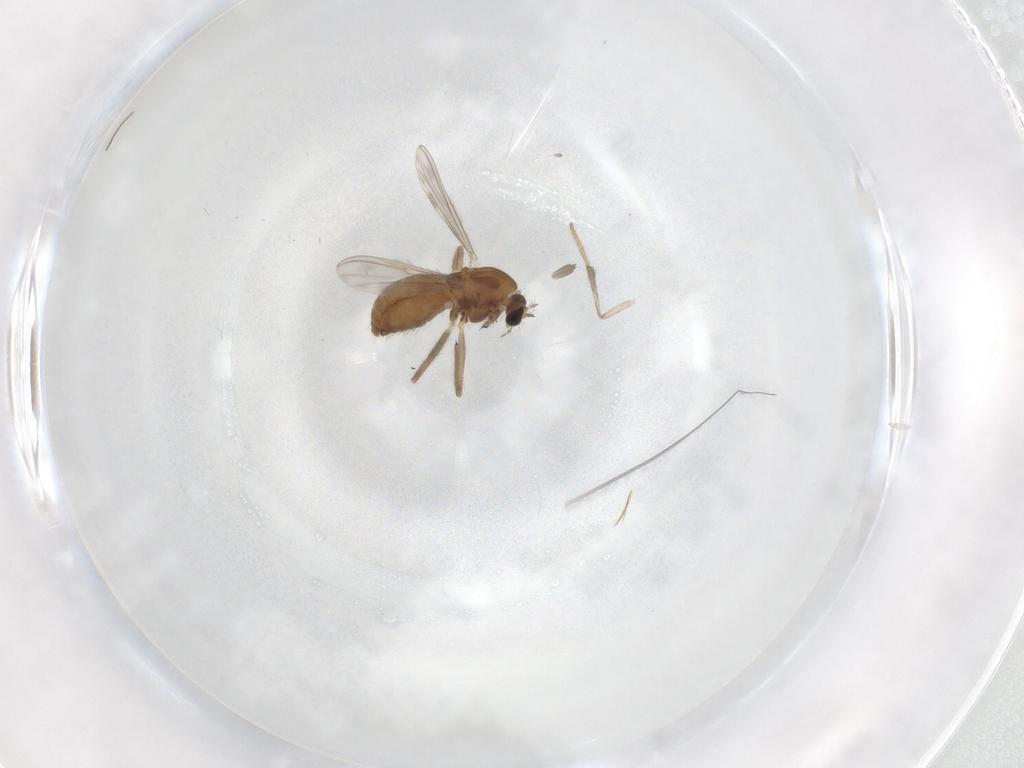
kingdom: Animalia
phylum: Arthropoda
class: Insecta
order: Diptera
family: Chironomidae
